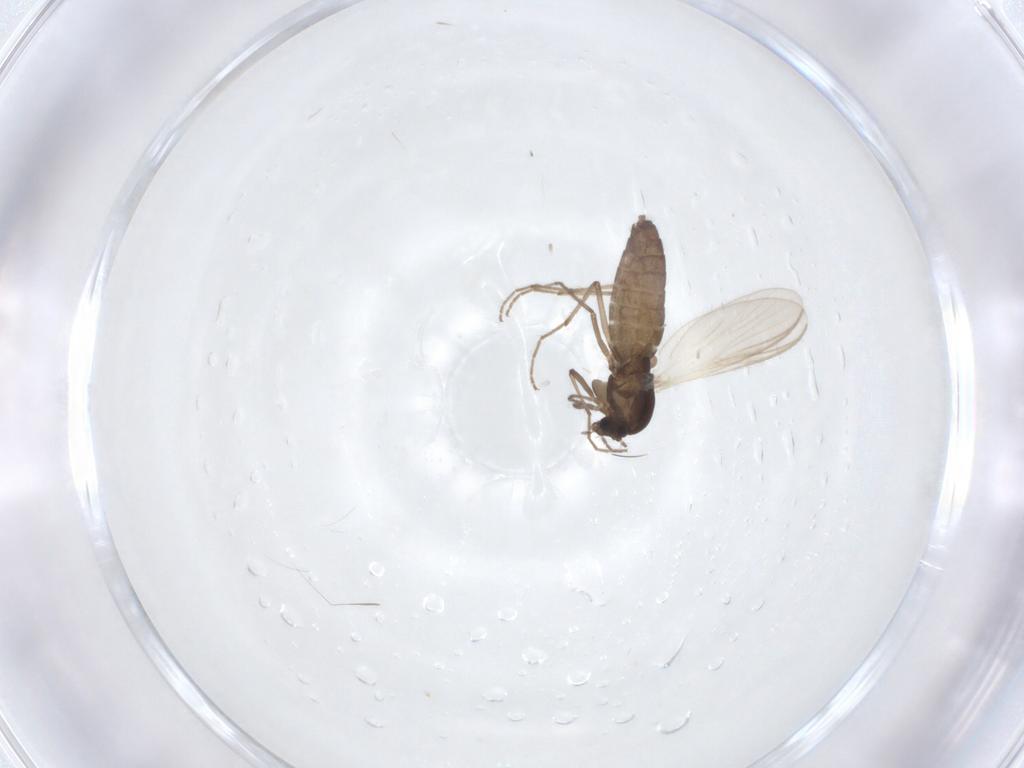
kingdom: Animalia
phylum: Arthropoda
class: Insecta
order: Diptera
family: Chironomidae
